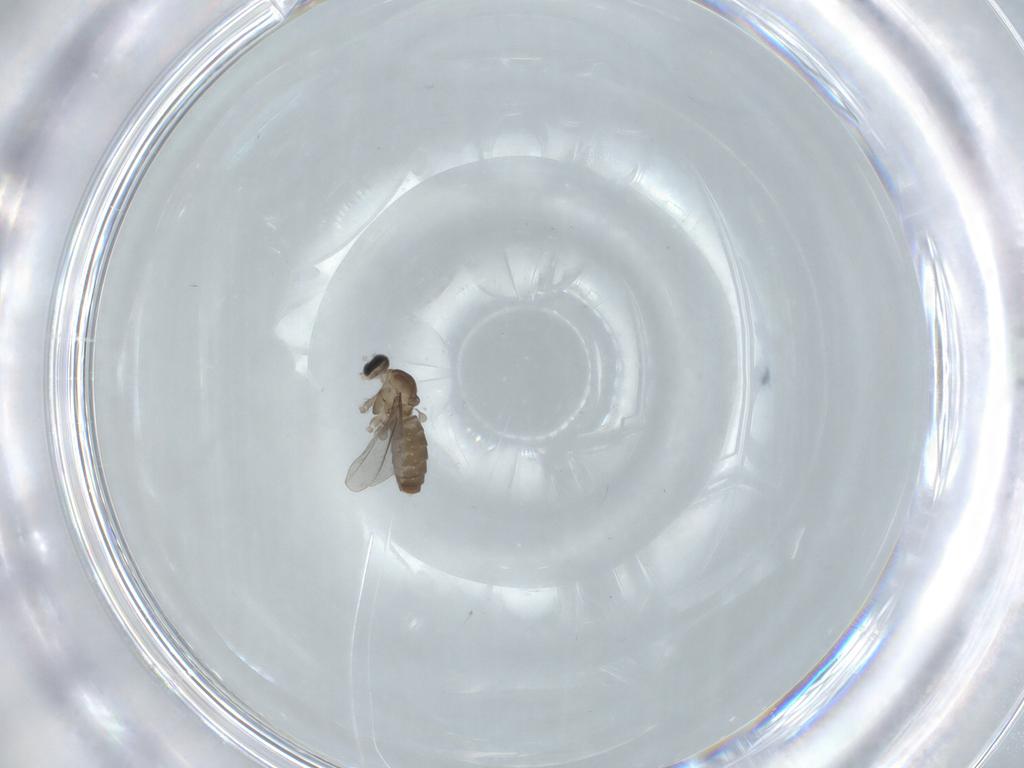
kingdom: Animalia
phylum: Arthropoda
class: Insecta
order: Diptera
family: Cecidomyiidae
